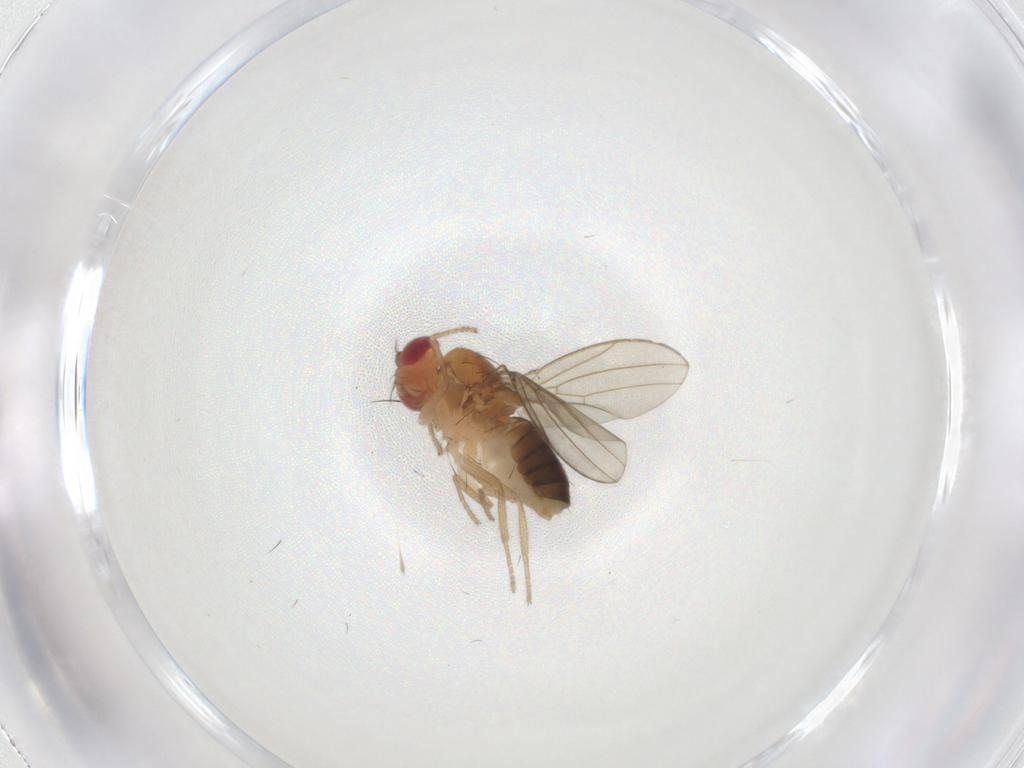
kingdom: Animalia
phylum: Arthropoda
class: Insecta
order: Diptera
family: Drosophilidae
